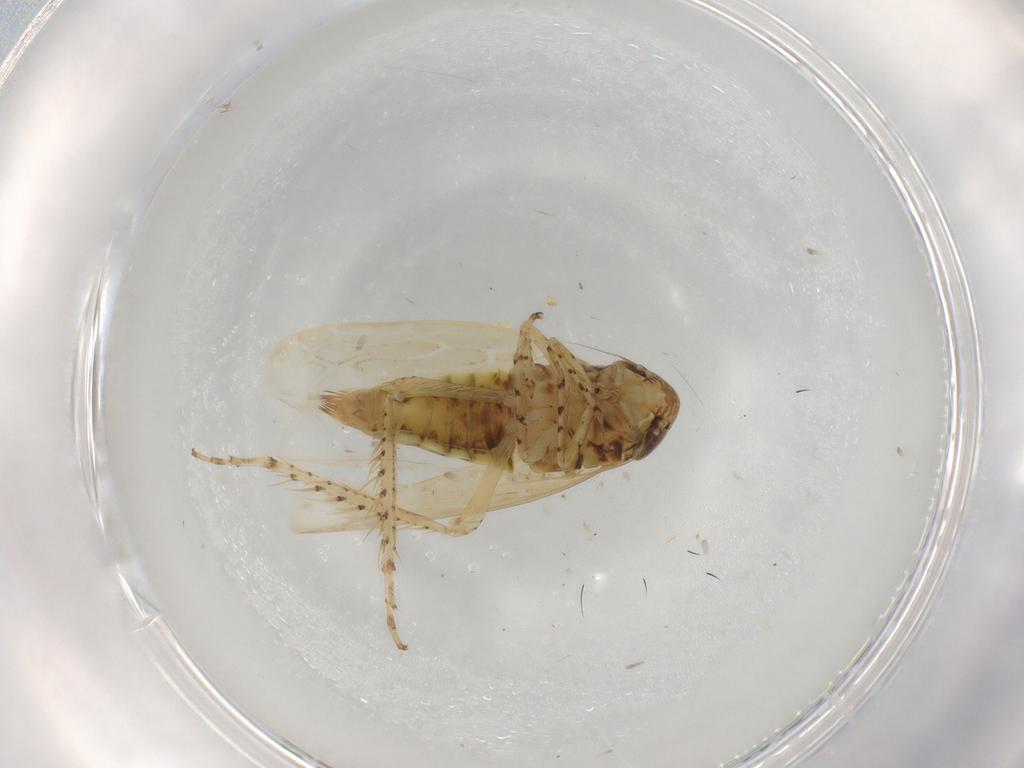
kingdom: Animalia
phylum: Arthropoda
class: Insecta
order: Hemiptera
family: Cicadellidae
